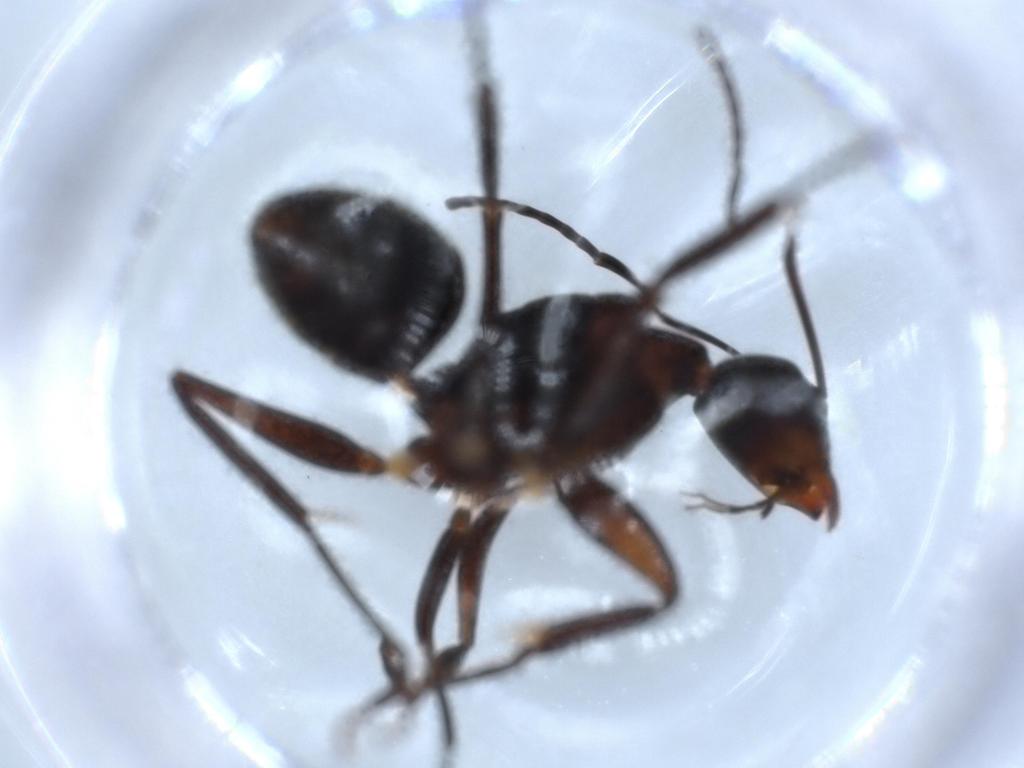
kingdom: Animalia
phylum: Arthropoda
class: Insecta
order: Hymenoptera
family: Formicidae
